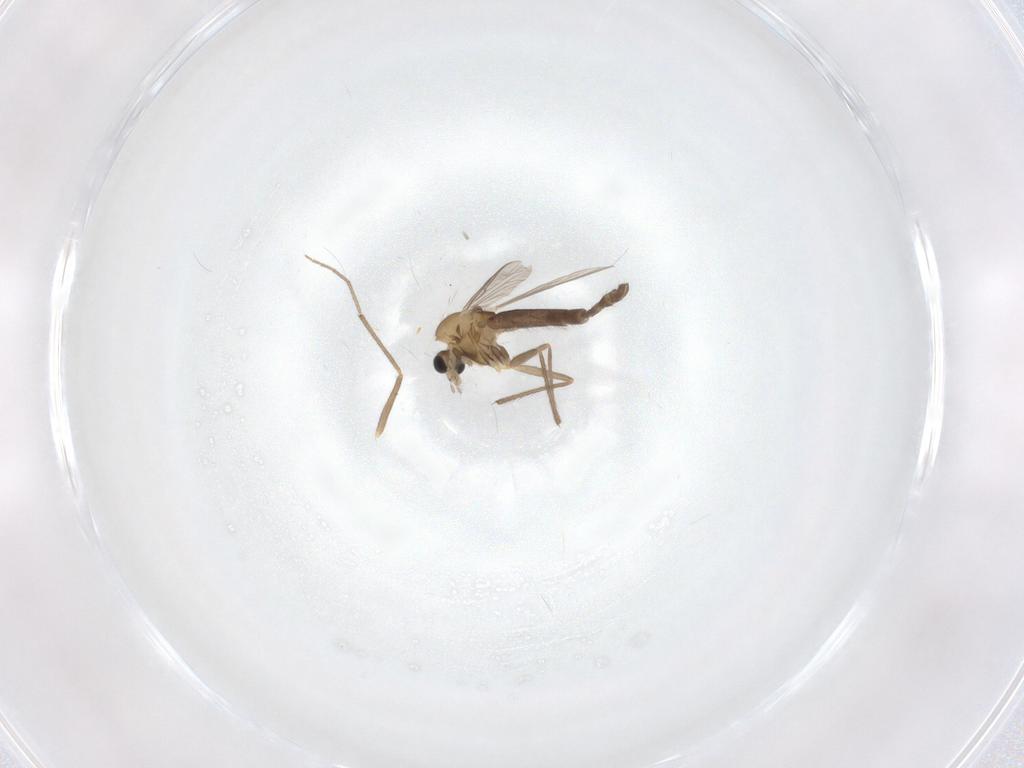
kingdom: Animalia
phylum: Arthropoda
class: Insecta
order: Diptera
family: Chironomidae
